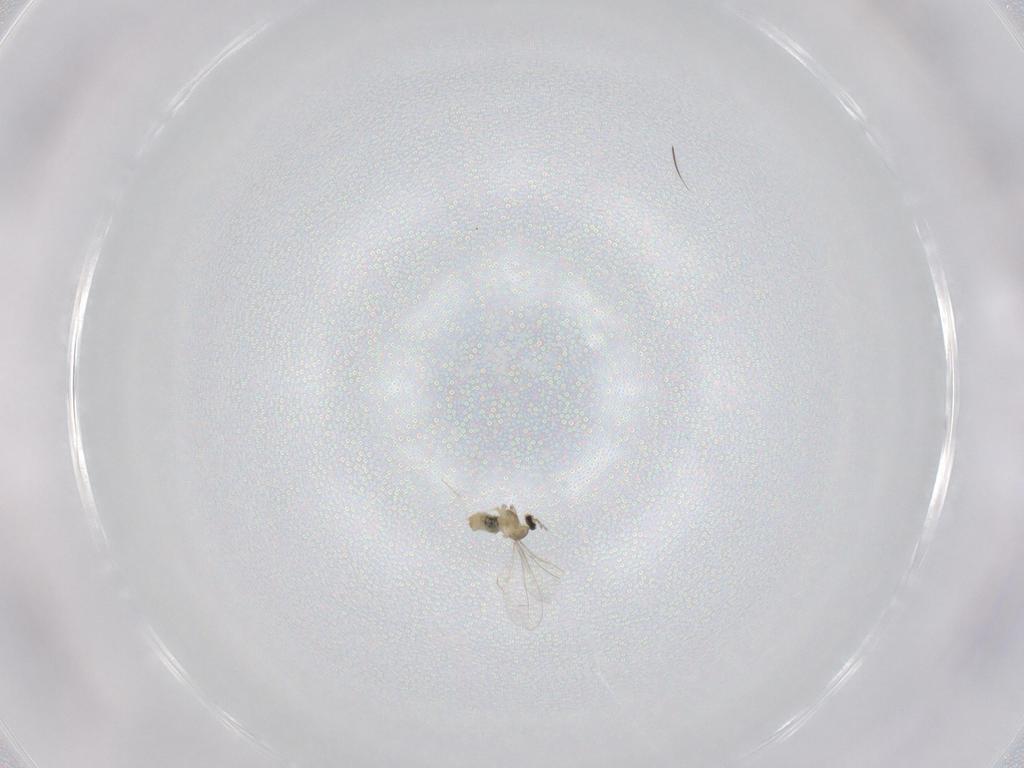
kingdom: Animalia
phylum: Arthropoda
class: Insecta
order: Diptera
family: Cecidomyiidae
